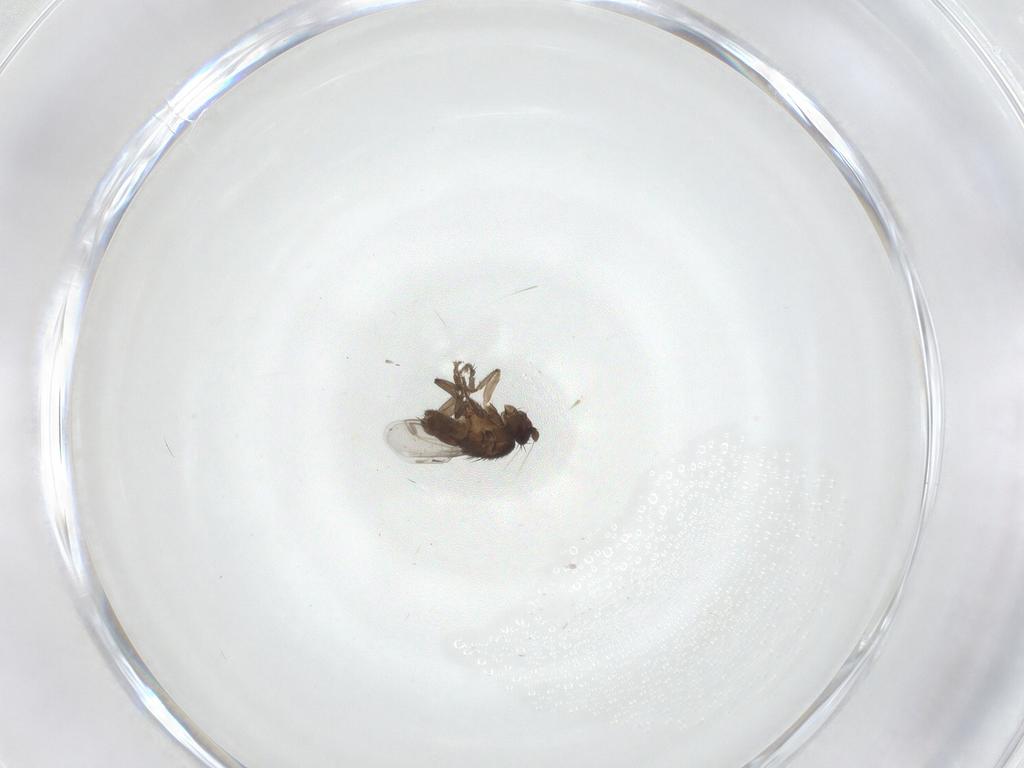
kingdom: Animalia
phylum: Arthropoda
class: Insecta
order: Diptera
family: Sphaeroceridae
